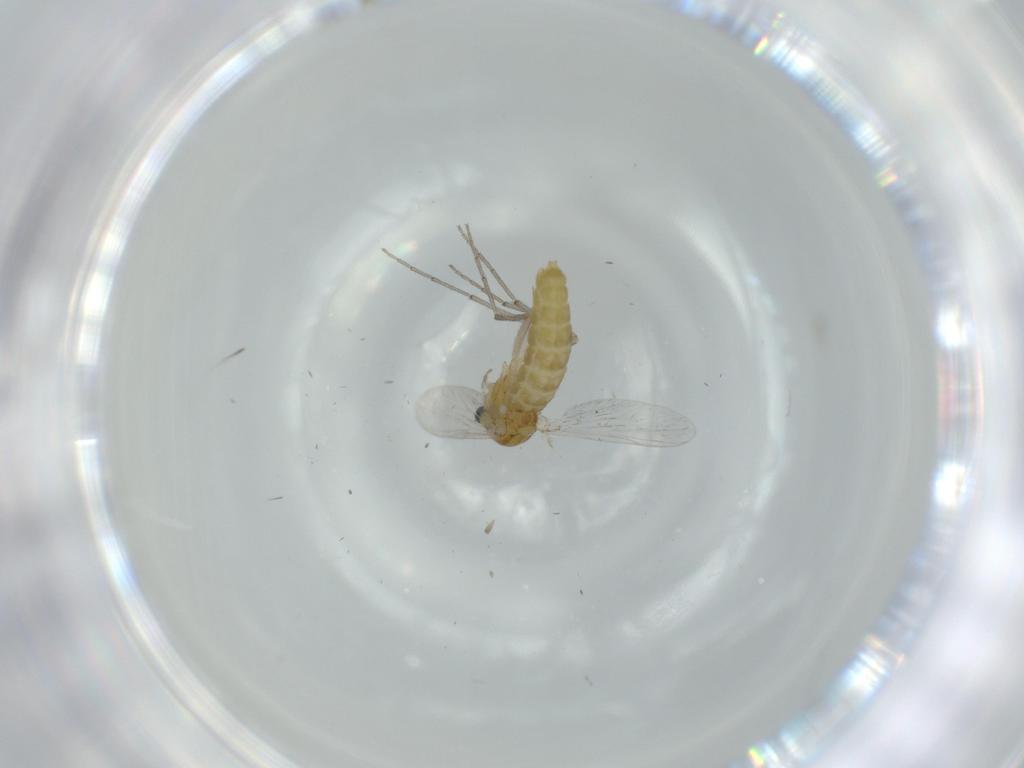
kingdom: Animalia
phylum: Arthropoda
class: Insecta
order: Diptera
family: Chironomidae
